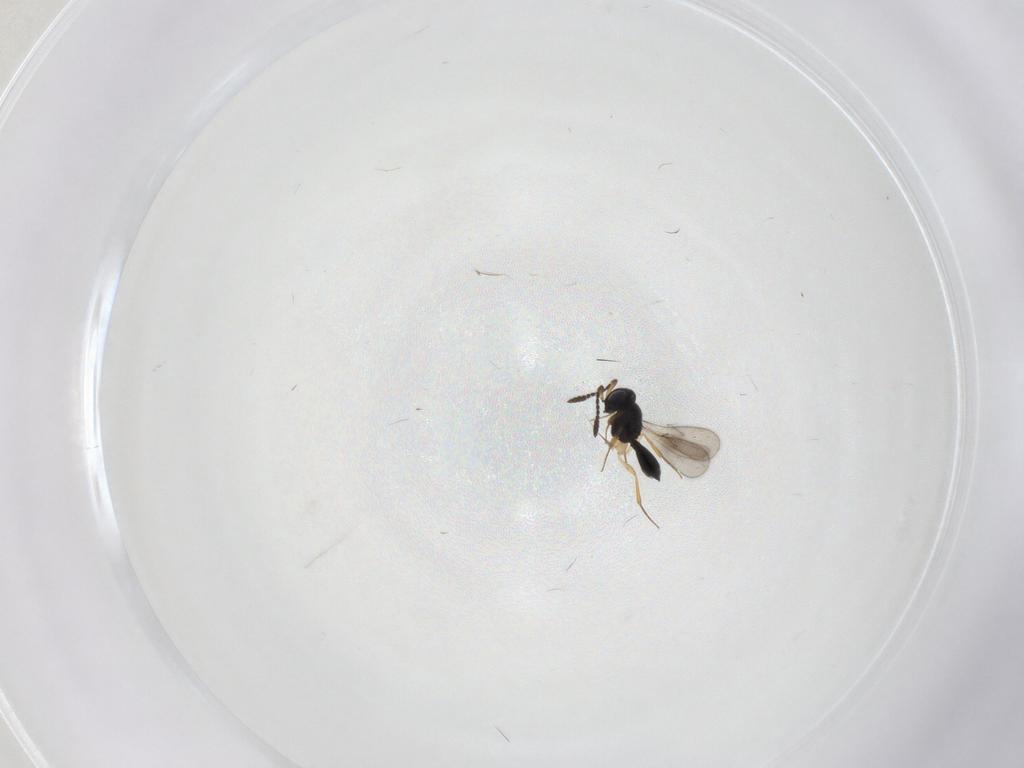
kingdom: Animalia
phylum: Arthropoda
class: Insecta
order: Hymenoptera
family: Scelionidae
